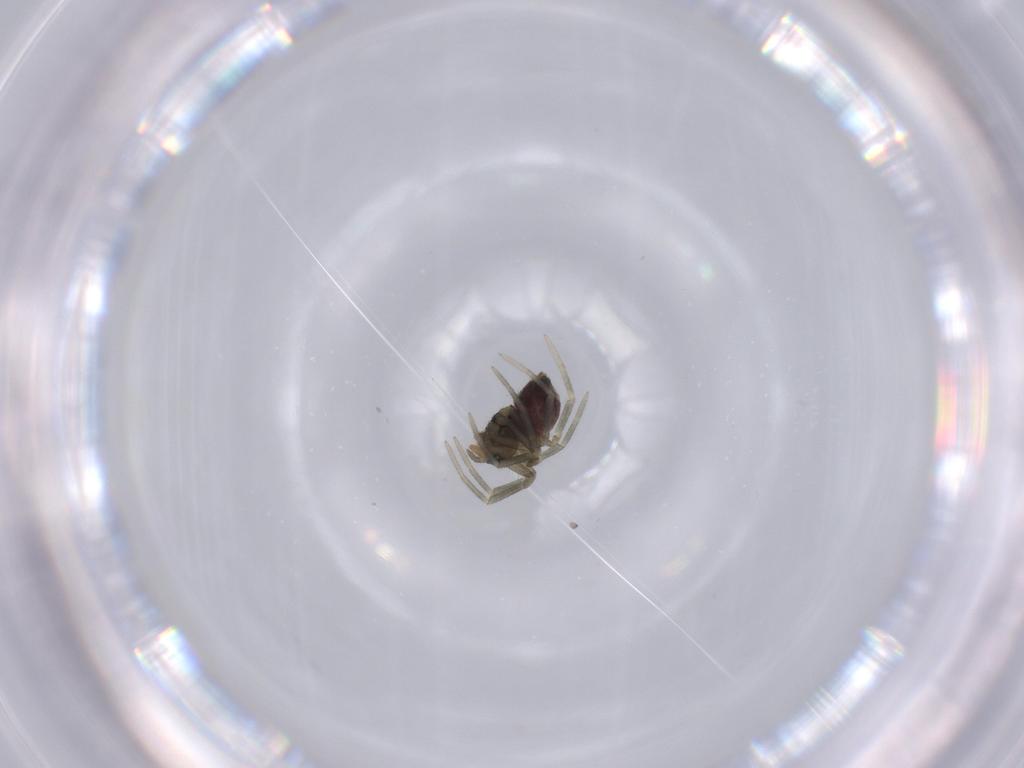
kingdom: Animalia
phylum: Arthropoda
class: Arachnida
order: Araneae
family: Linyphiidae
